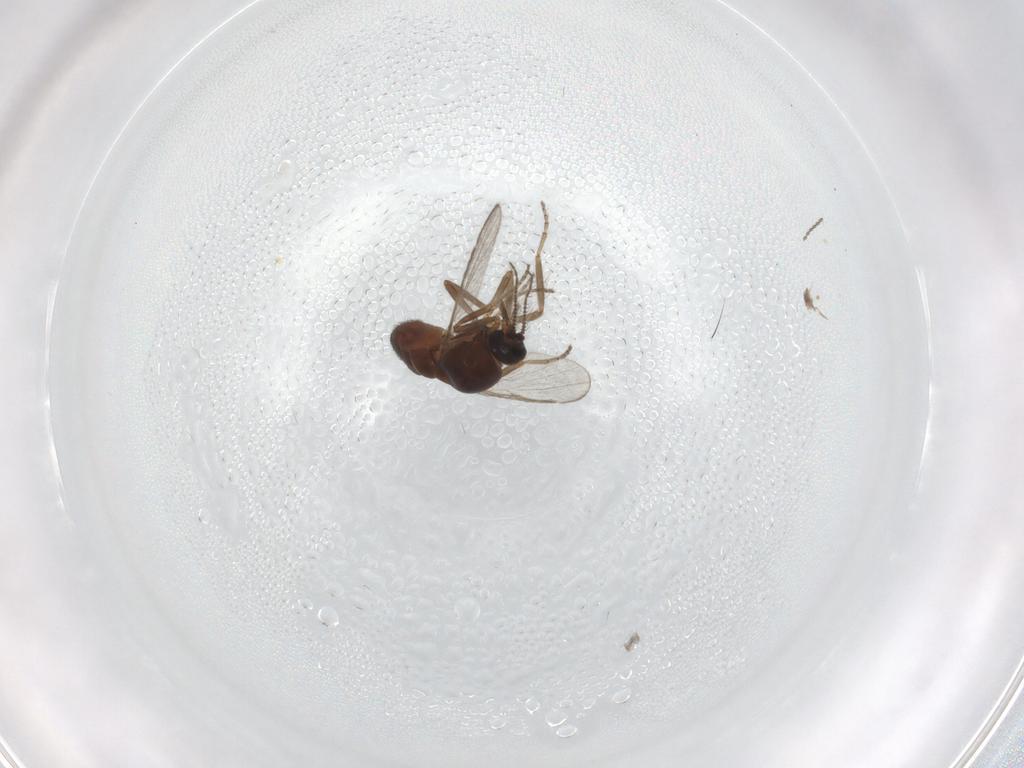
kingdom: Animalia
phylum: Arthropoda
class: Insecta
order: Diptera
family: Ceratopogonidae
